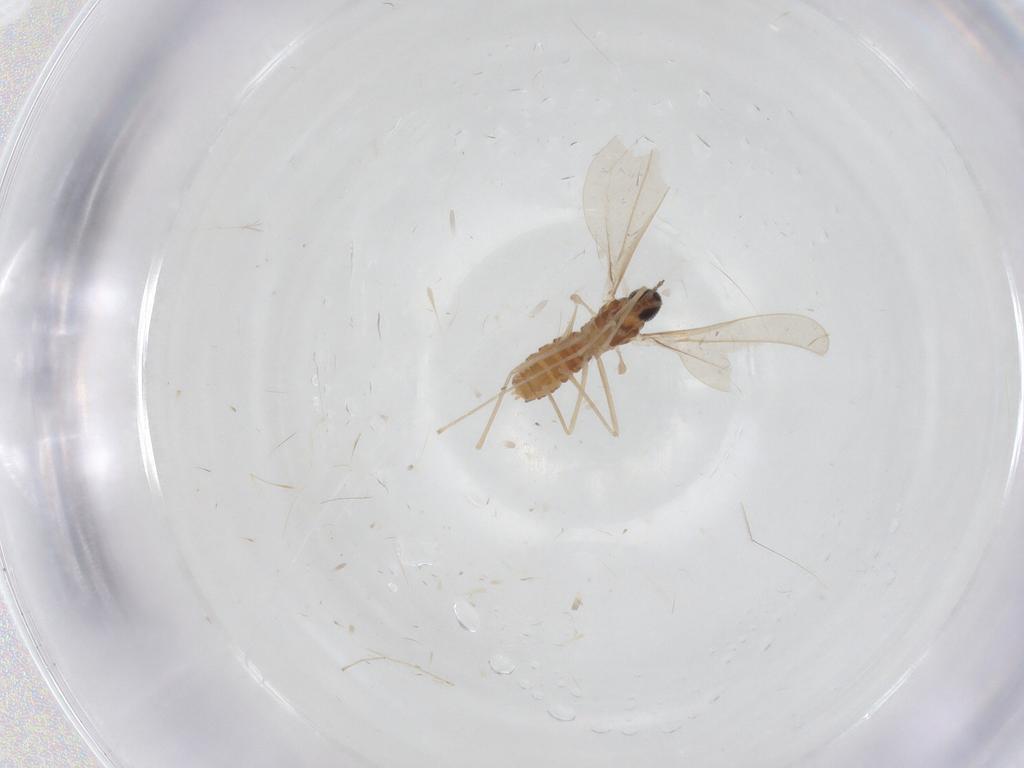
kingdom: Animalia
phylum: Arthropoda
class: Insecta
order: Diptera
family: Cecidomyiidae
